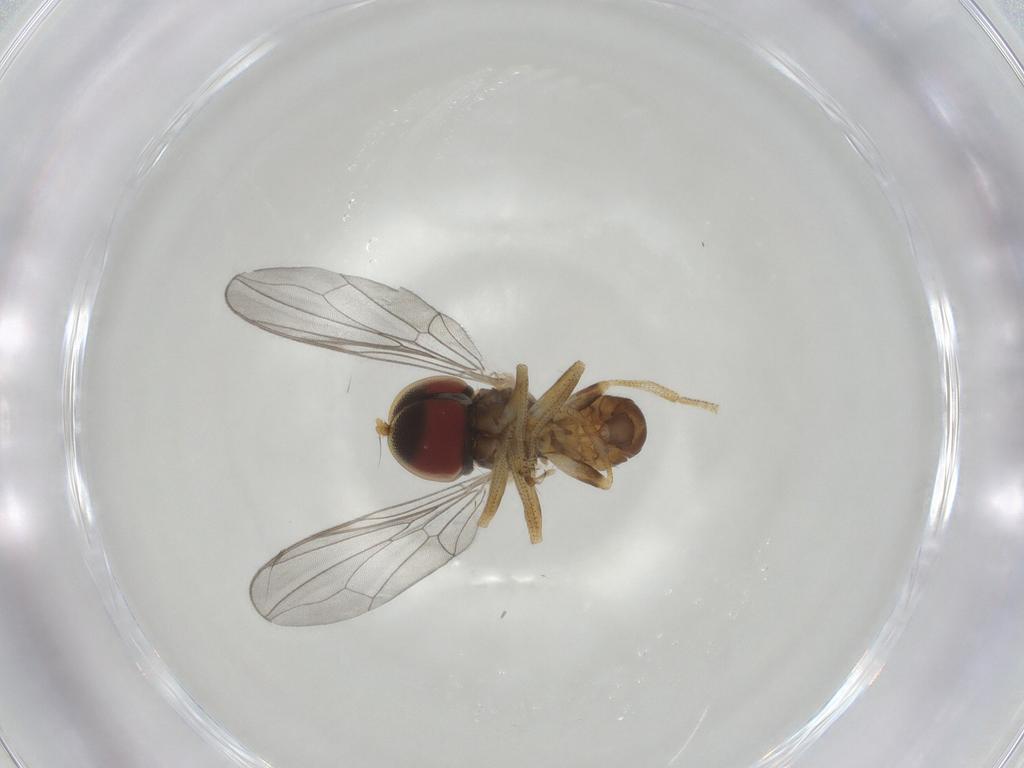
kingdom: Animalia
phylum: Arthropoda
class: Insecta
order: Diptera
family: Pipunculidae
